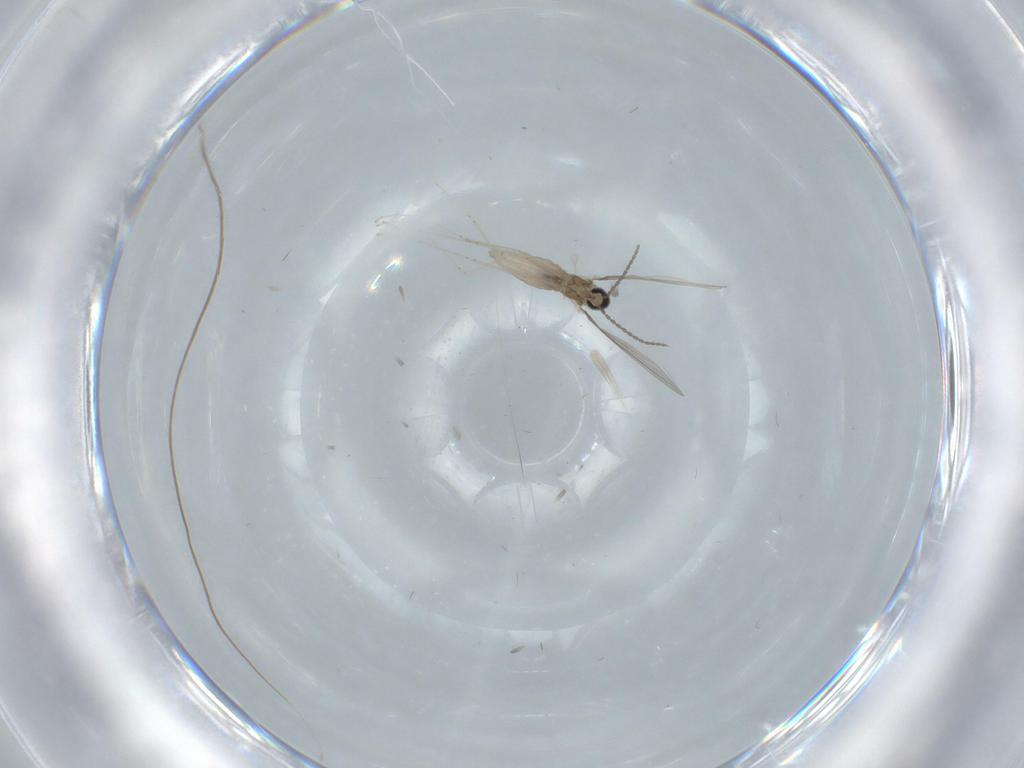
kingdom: Animalia
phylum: Arthropoda
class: Insecta
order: Diptera
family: Cecidomyiidae
